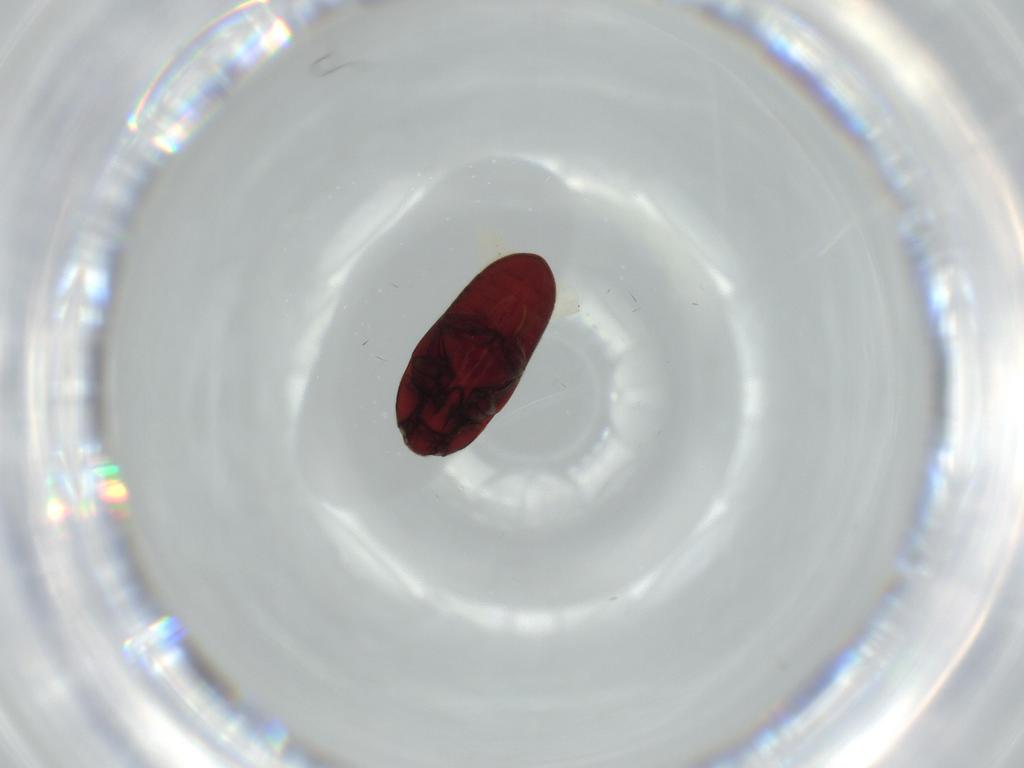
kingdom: Animalia
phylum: Arthropoda
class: Insecta
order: Coleoptera
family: Throscidae
